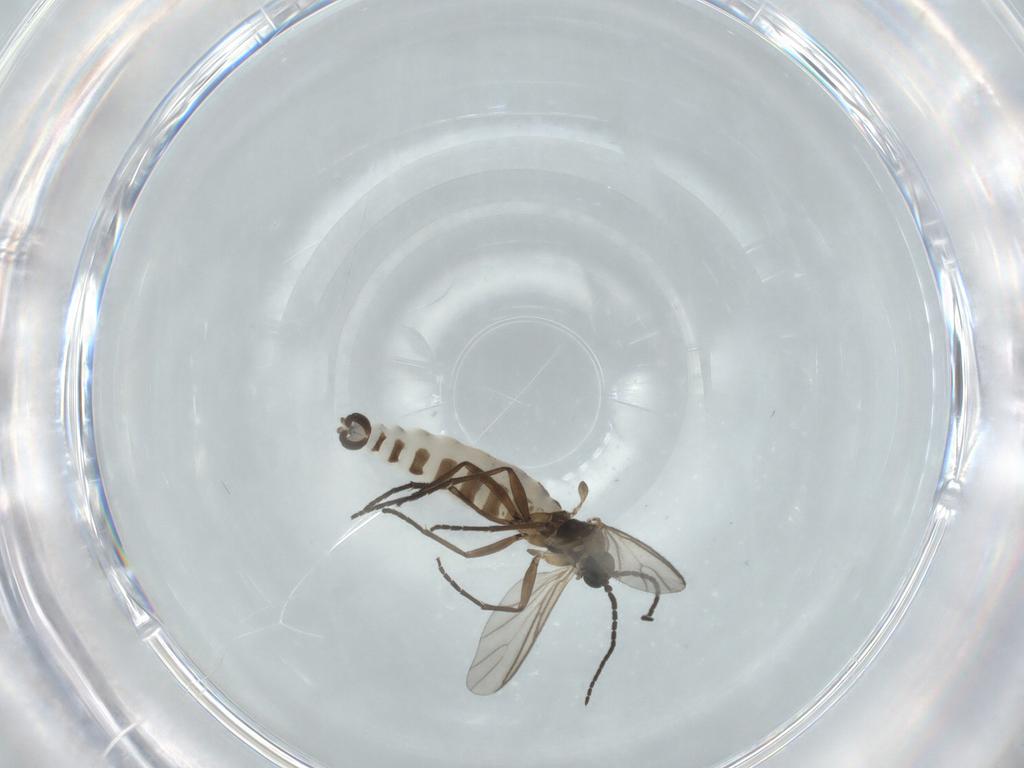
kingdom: Animalia
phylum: Arthropoda
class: Insecta
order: Diptera
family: Sciaridae
